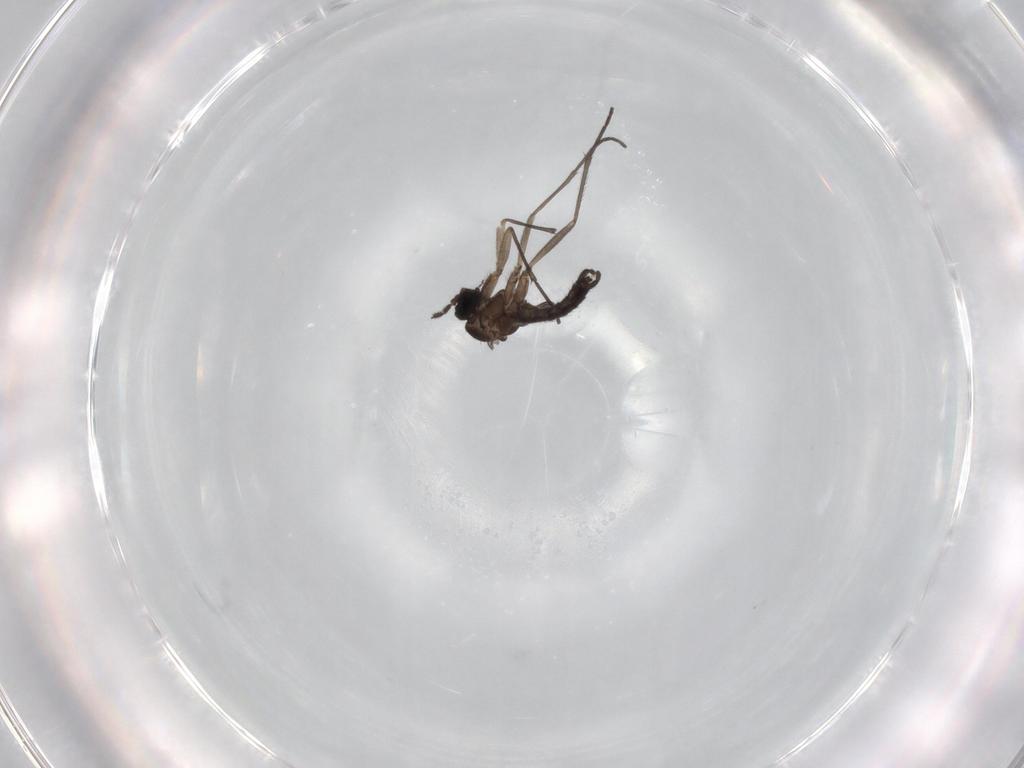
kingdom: Animalia
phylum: Arthropoda
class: Insecta
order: Diptera
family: Sciaridae
